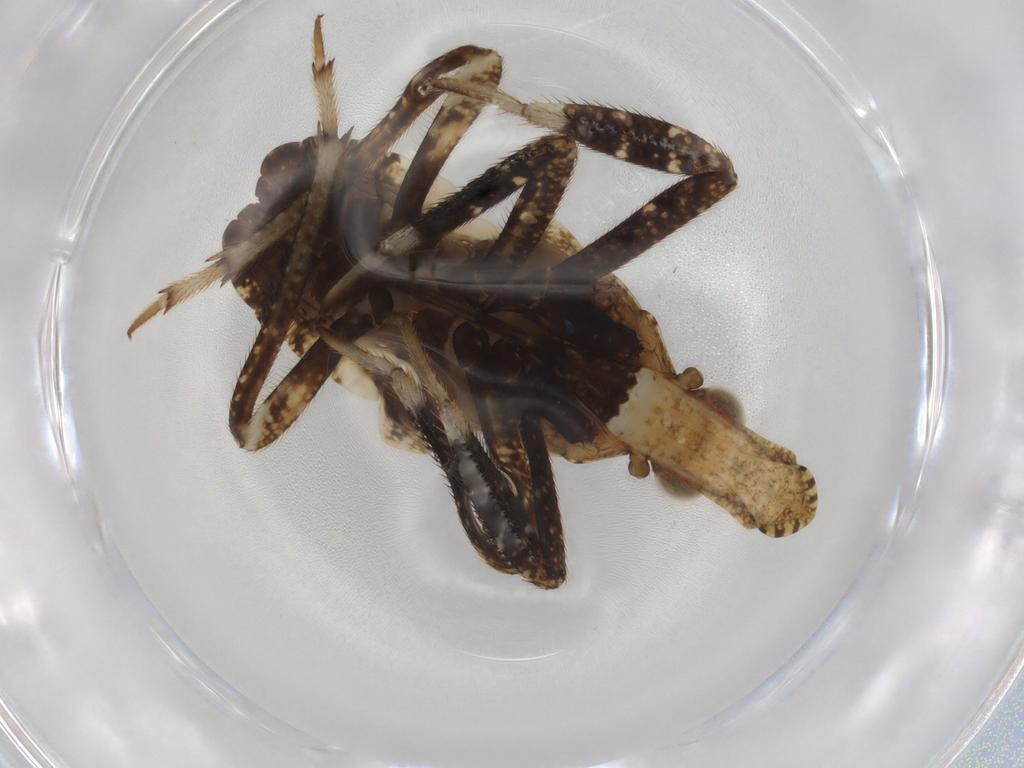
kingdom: Animalia
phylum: Arthropoda
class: Insecta
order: Hemiptera
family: Fulgoridae
